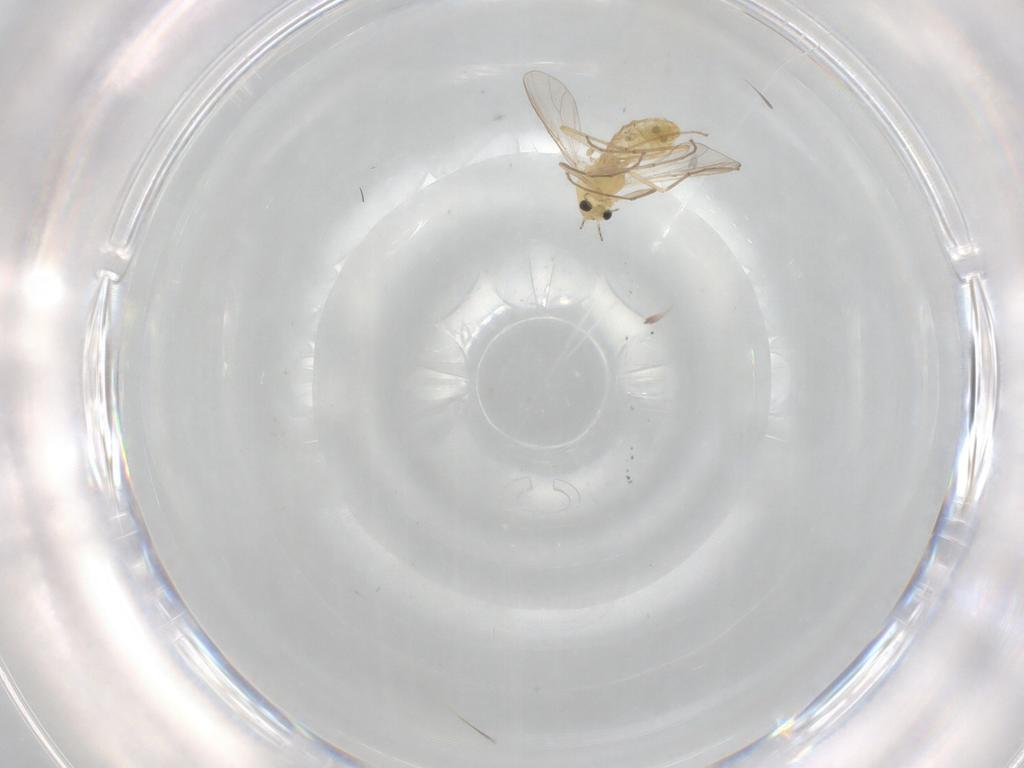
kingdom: Animalia
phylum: Arthropoda
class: Insecta
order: Diptera
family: Chironomidae
